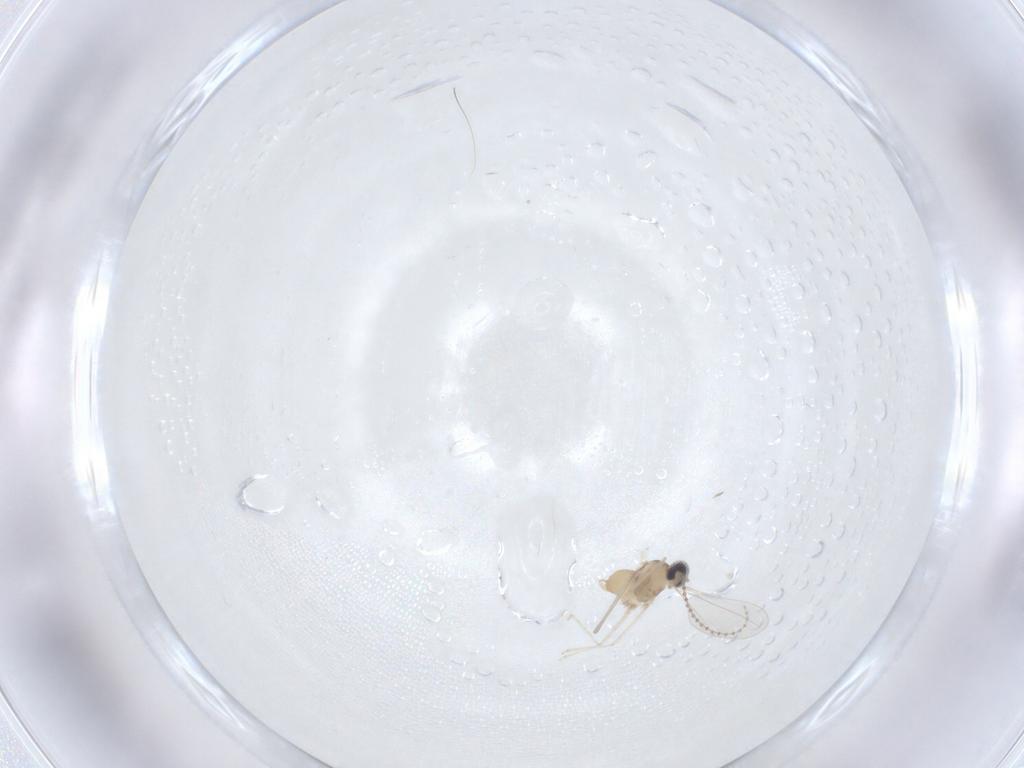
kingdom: Animalia
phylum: Arthropoda
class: Insecta
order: Diptera
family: Cecidomyiidae
